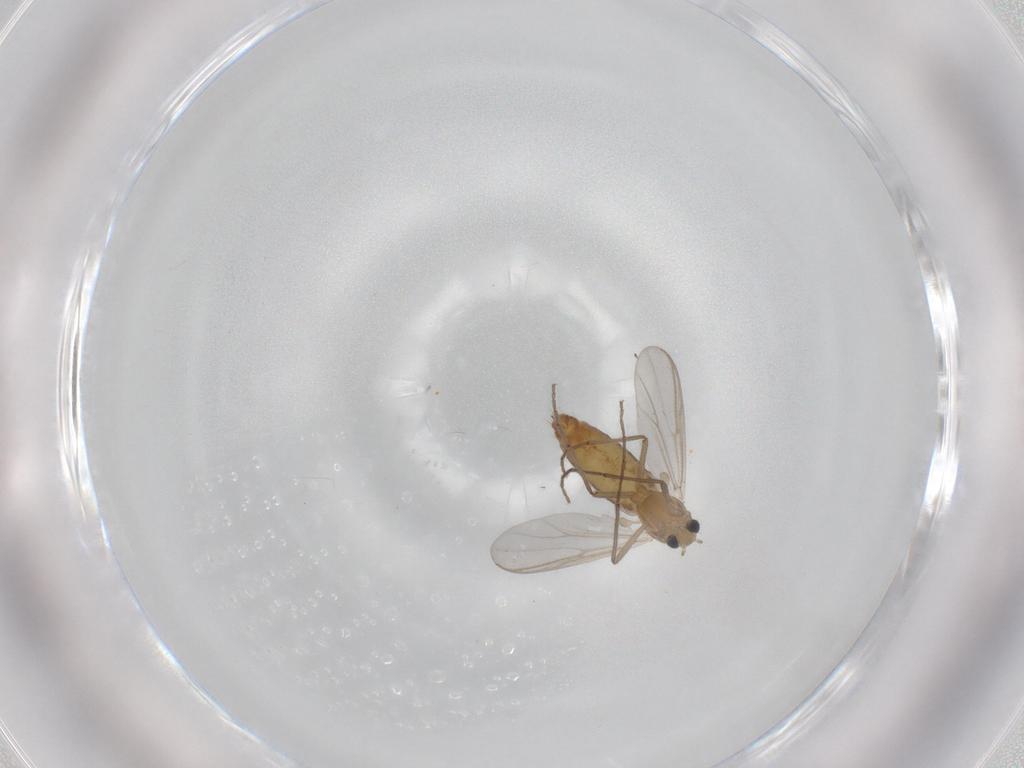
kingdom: Animalia
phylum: Arthropoda
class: Insecta
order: Diptera
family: Chironomidae
